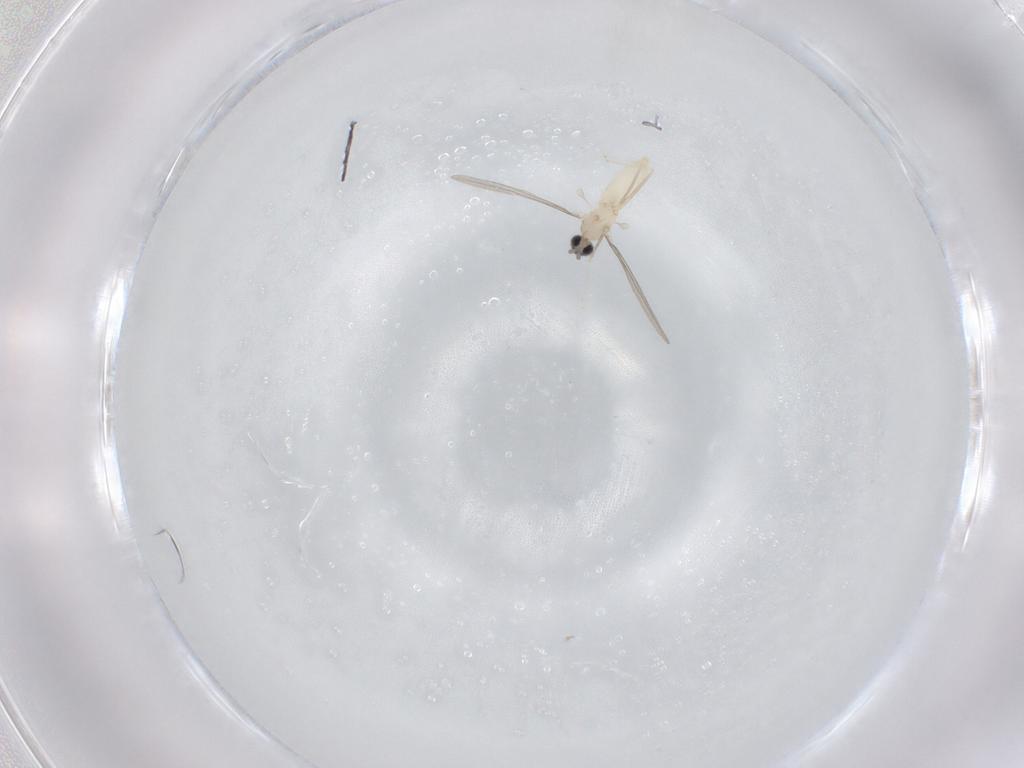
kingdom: Animalia
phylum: Arthropoda
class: Insecta
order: Diptera
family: Cecidomyiidae
